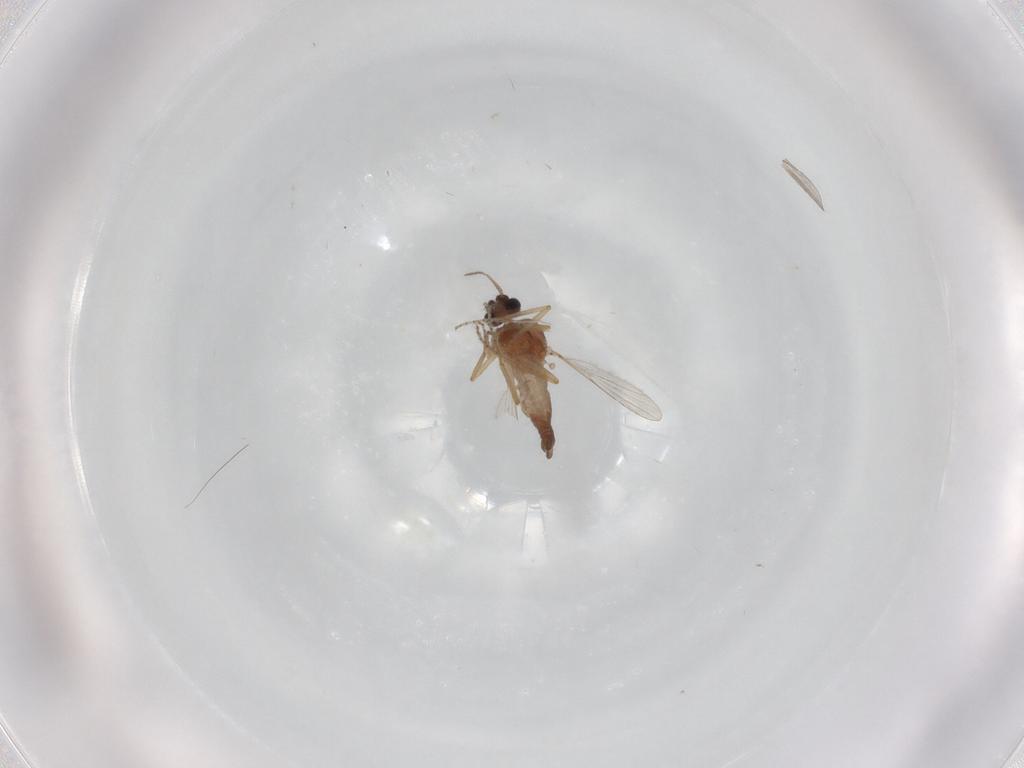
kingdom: Animalia
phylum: Arthropoda
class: Insecta
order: Diptera
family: Ceratopogonidae
